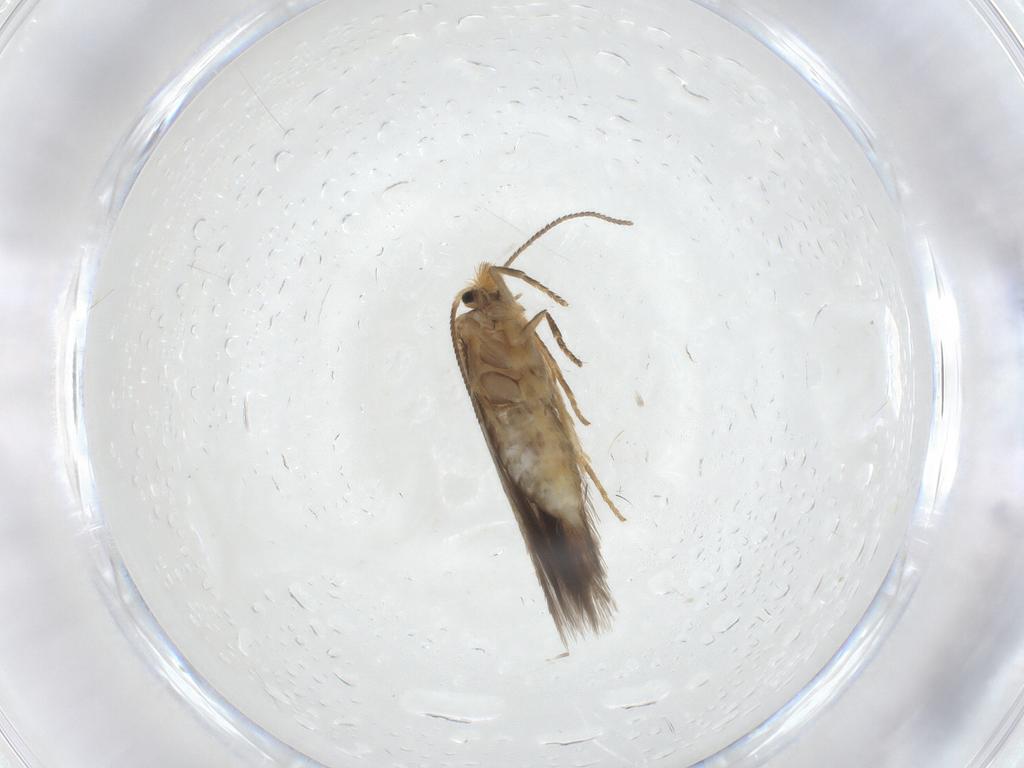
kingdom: Animalia
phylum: Arthropoda
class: Insecta
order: Lepidoptera
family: Nepticulidae
